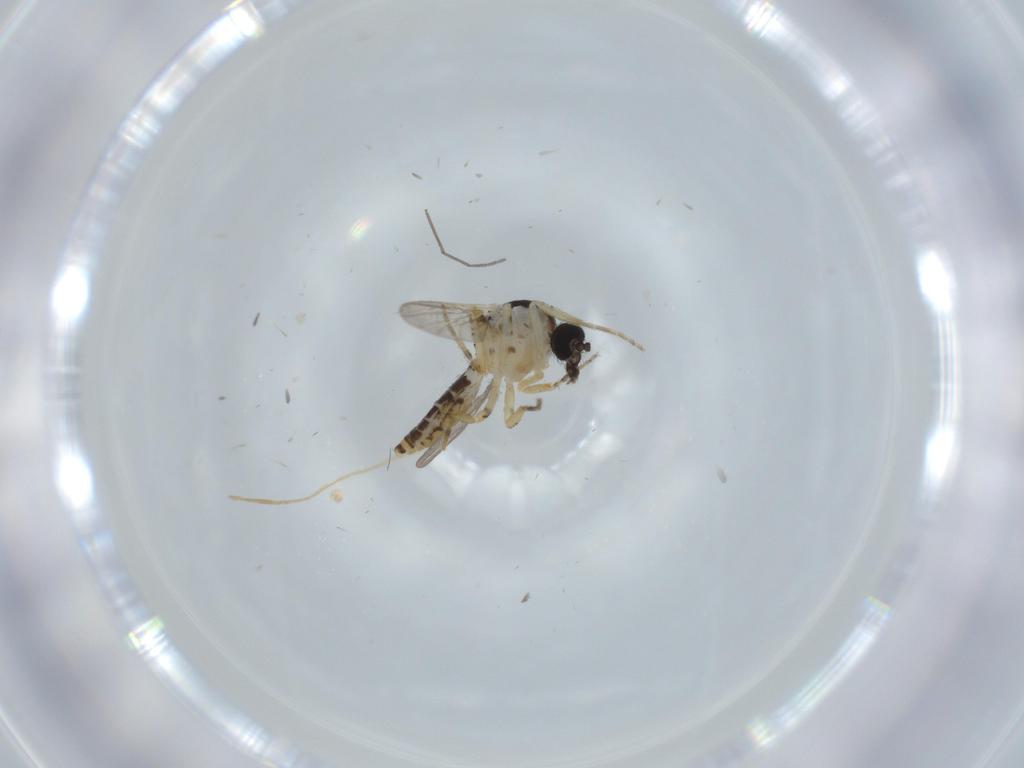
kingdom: Animalia
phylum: Arthropoda
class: Insecta
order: Diptera
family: Ceratopogonidae
